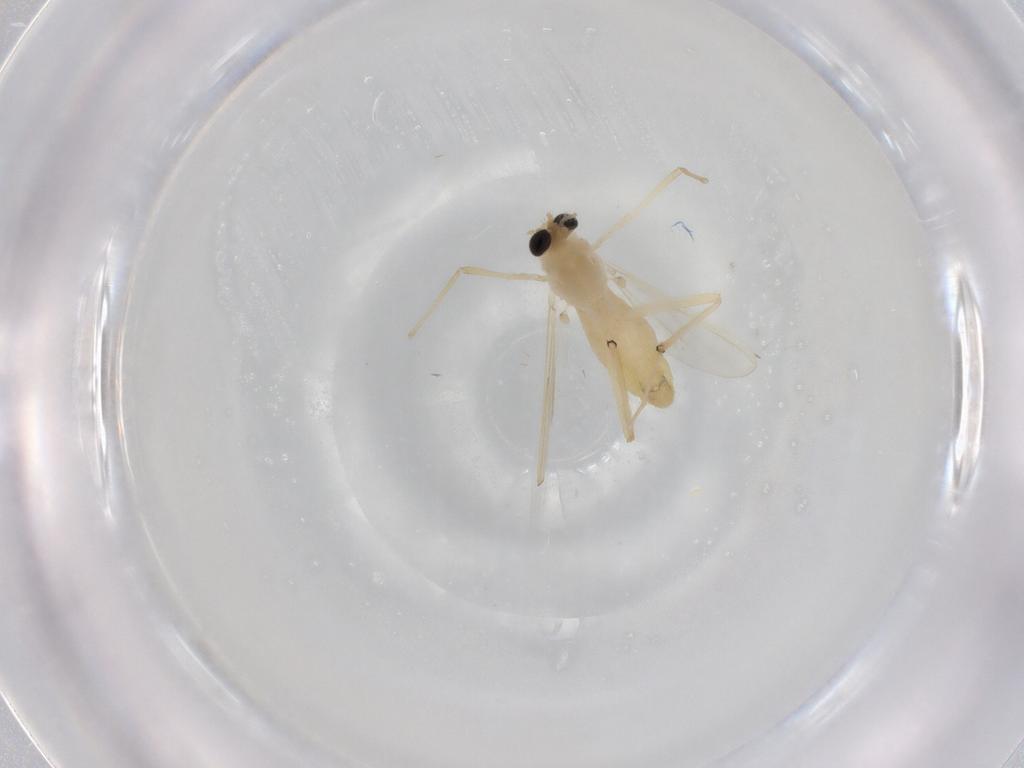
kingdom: Animalia
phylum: Arthropoda
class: Insecta
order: Diptera
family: Chironomidae
